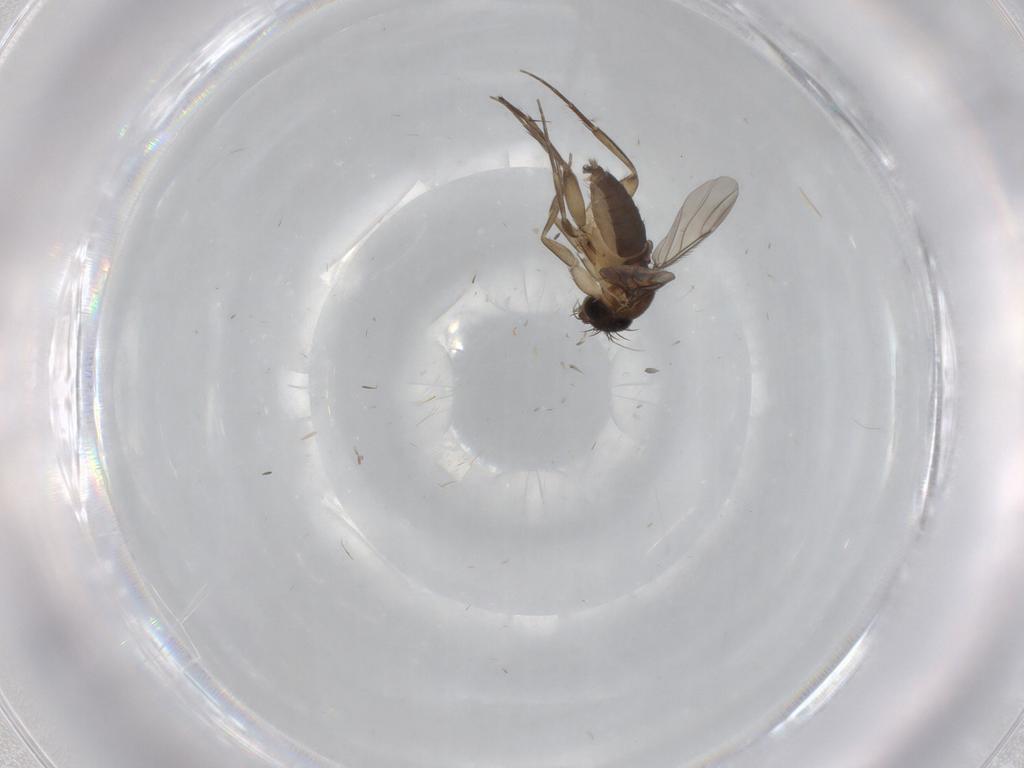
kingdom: Animalia
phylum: Arthropoda
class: Insecta
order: Diptera
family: Phoridae
